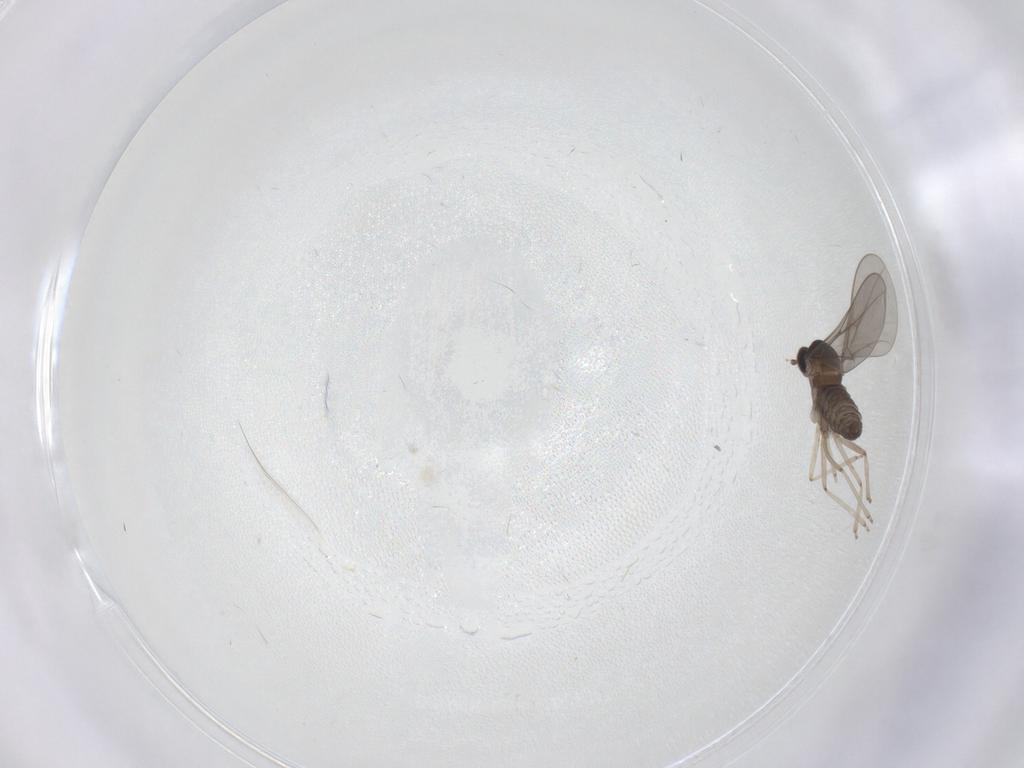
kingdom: Animalia
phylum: Arthropoda
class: Insecta
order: Diptera
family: Cecidomyiidae
